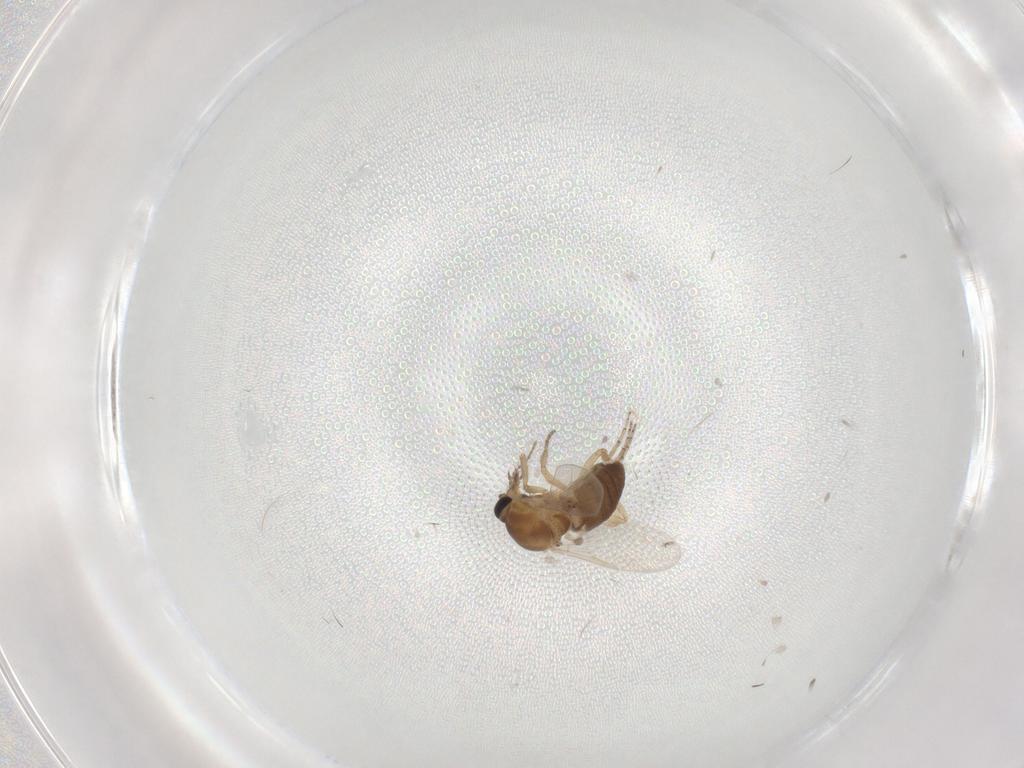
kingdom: Animalia
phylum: Arthropoda
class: Insecta
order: Diptera
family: Ceratopogonidae
